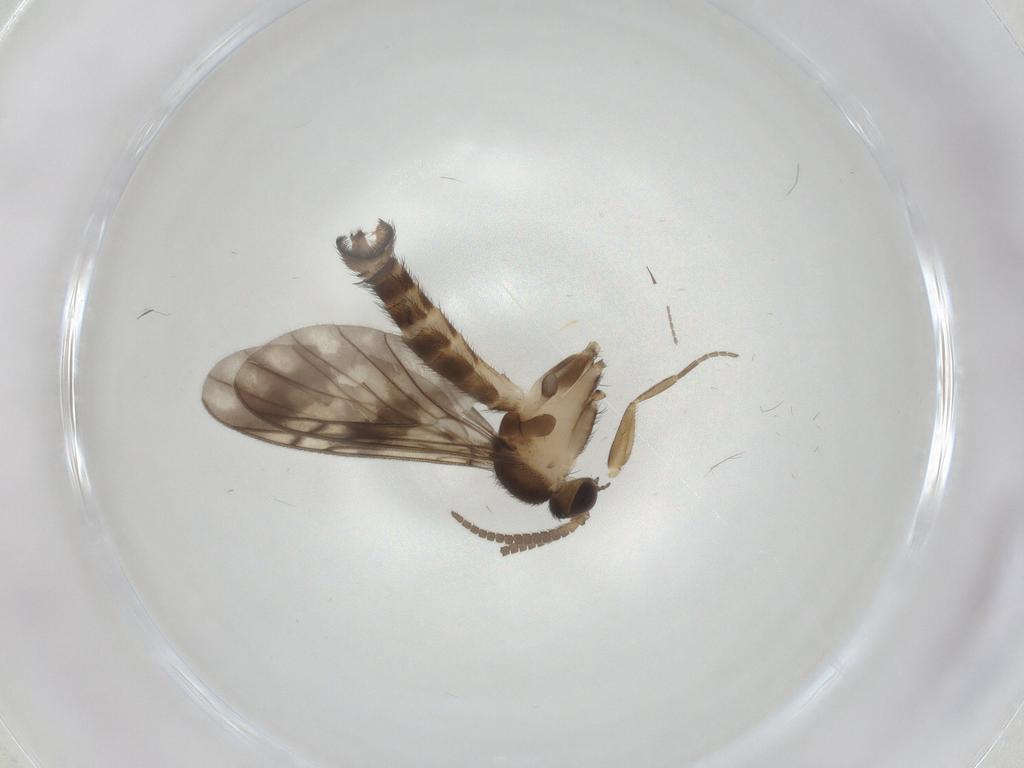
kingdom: Animalia
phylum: Arthropoda
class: Insecta
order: Diptera
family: Phoridae
